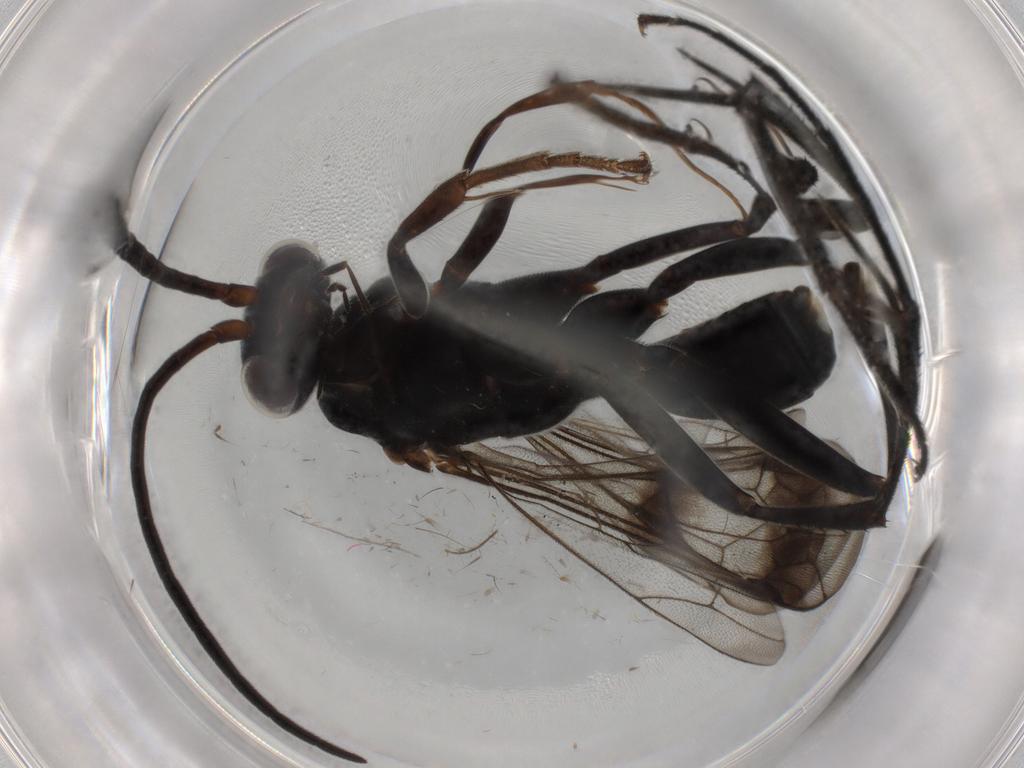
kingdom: Animalia
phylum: Arthropoda
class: Insecta
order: Hymenoptera
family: Pompilidae
